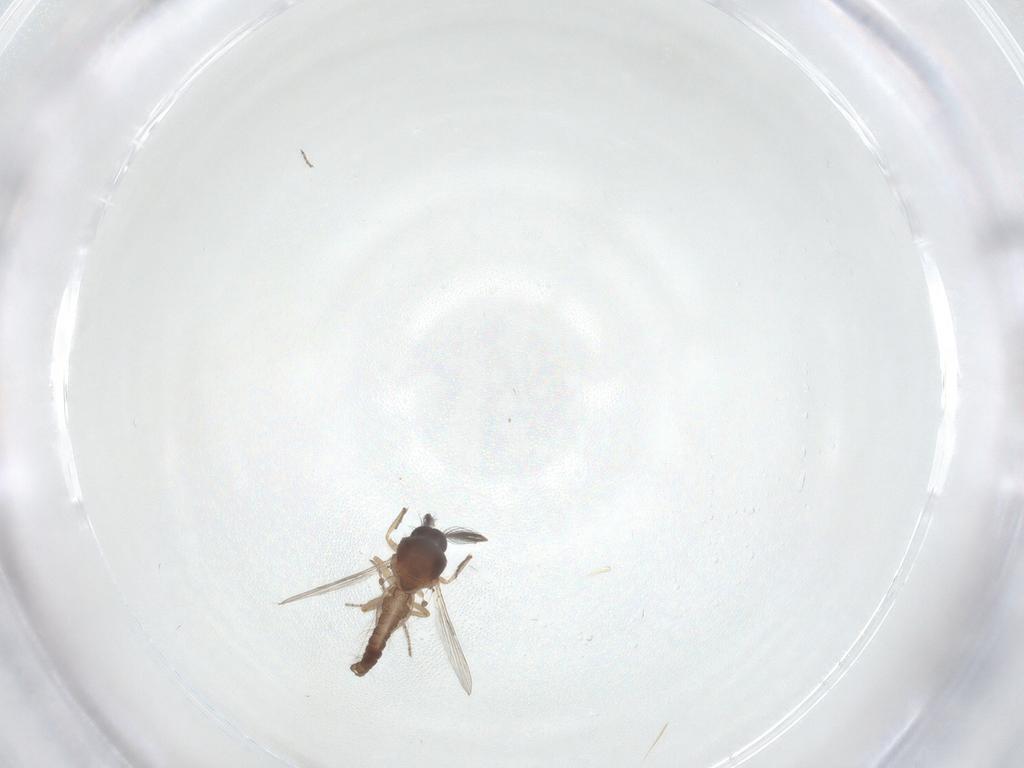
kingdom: Animalia
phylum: Arthropoda
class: Insecta
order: Diptera
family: Ceratopogonidae
